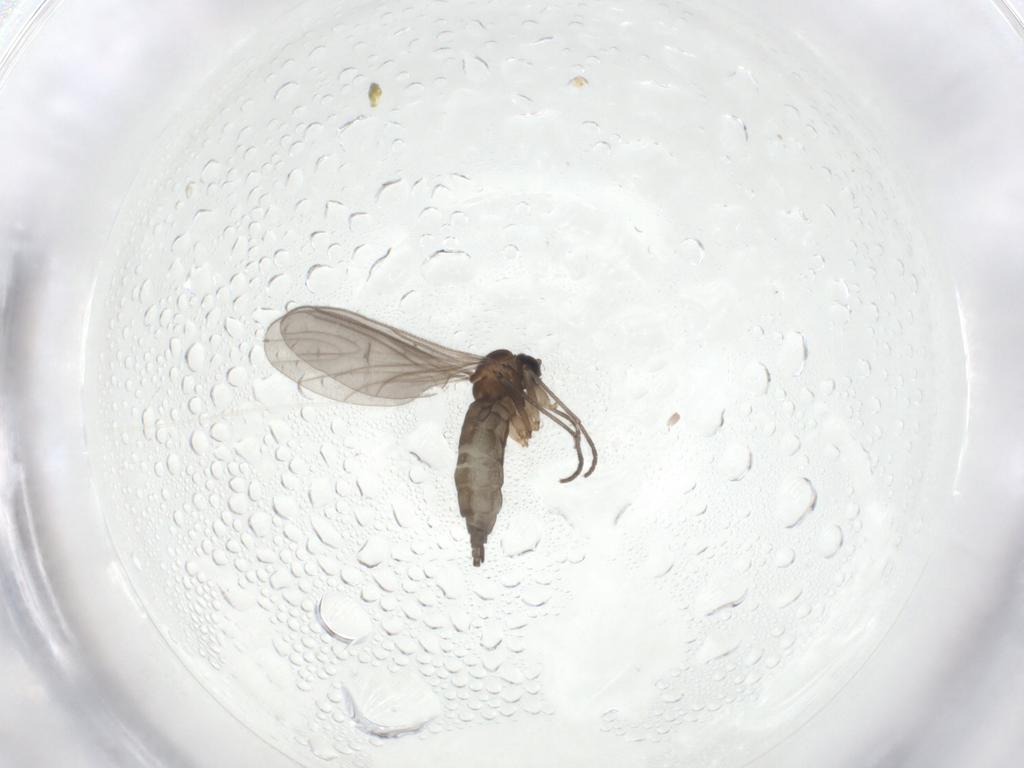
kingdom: Animalia
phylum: Arthropoda
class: Insecta
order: Diptera
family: Sciaridae
